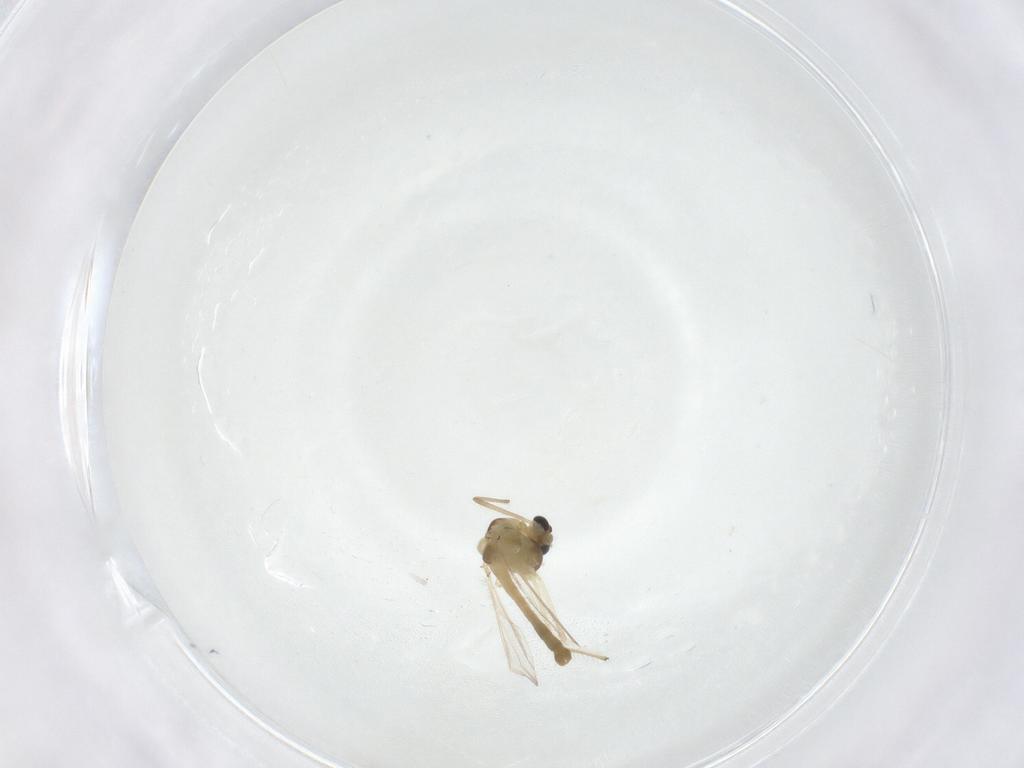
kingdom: Animalia
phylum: Arthropoda
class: Insecta
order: Diptera
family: Chironomidae
